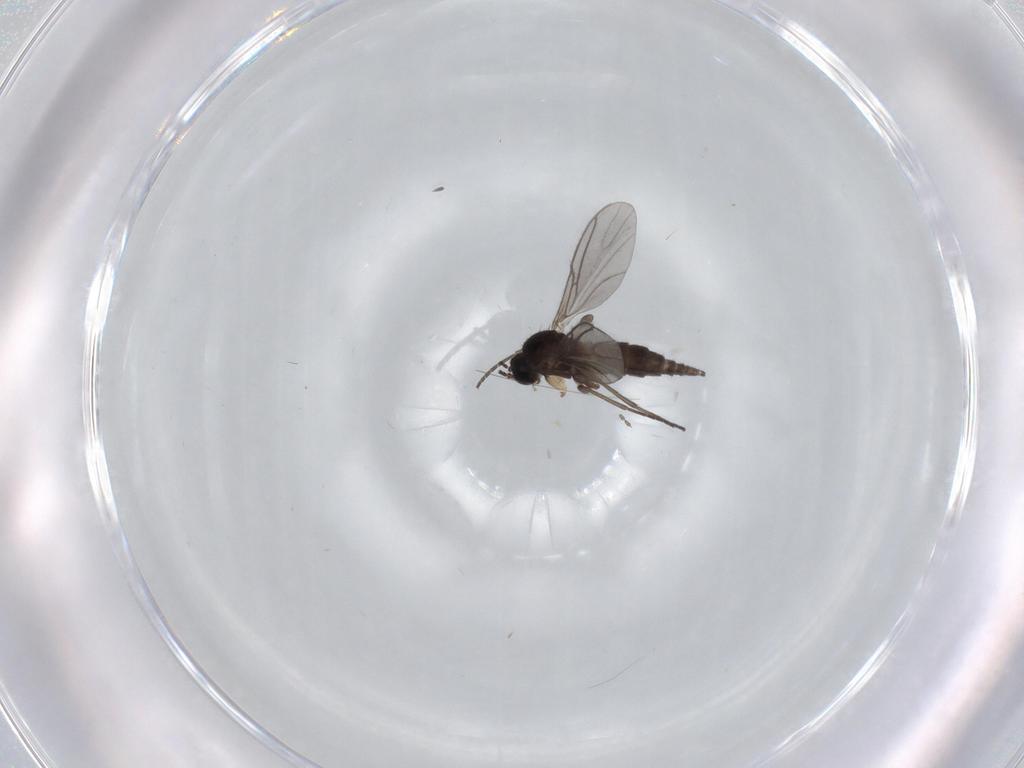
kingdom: Animalia
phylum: Arthropoda
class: Insecta
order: Diptera
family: Sciaridae
